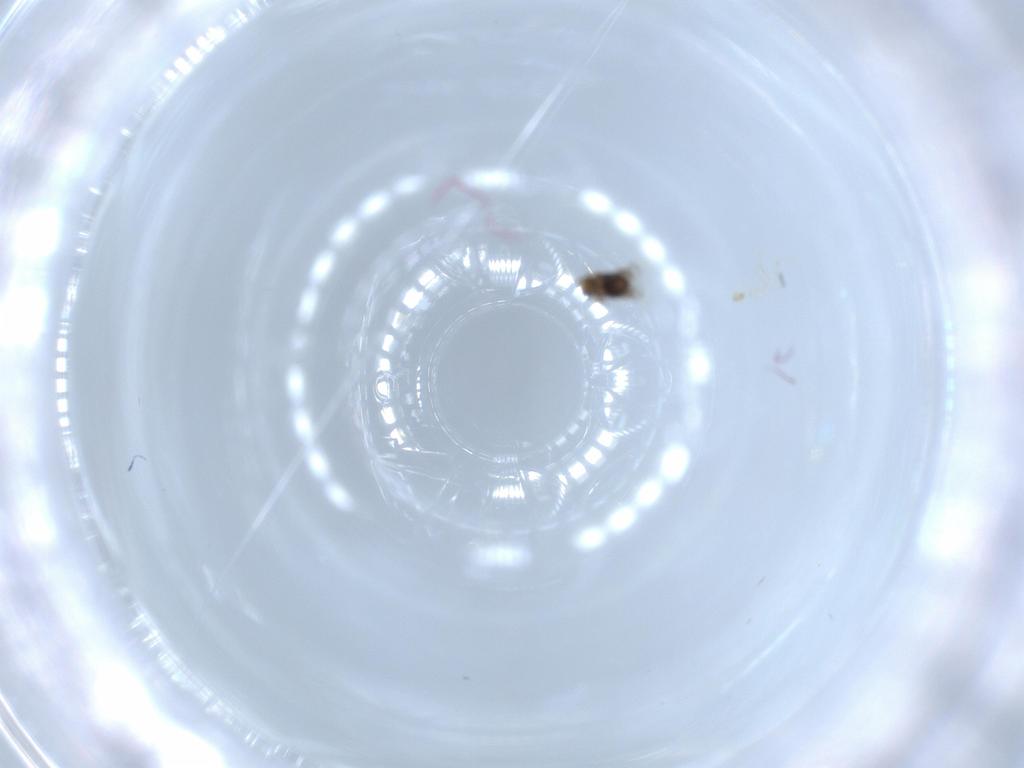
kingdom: Animalia
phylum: Arthropoda
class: Insecta
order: Hymenoptera
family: Signiphoridae
